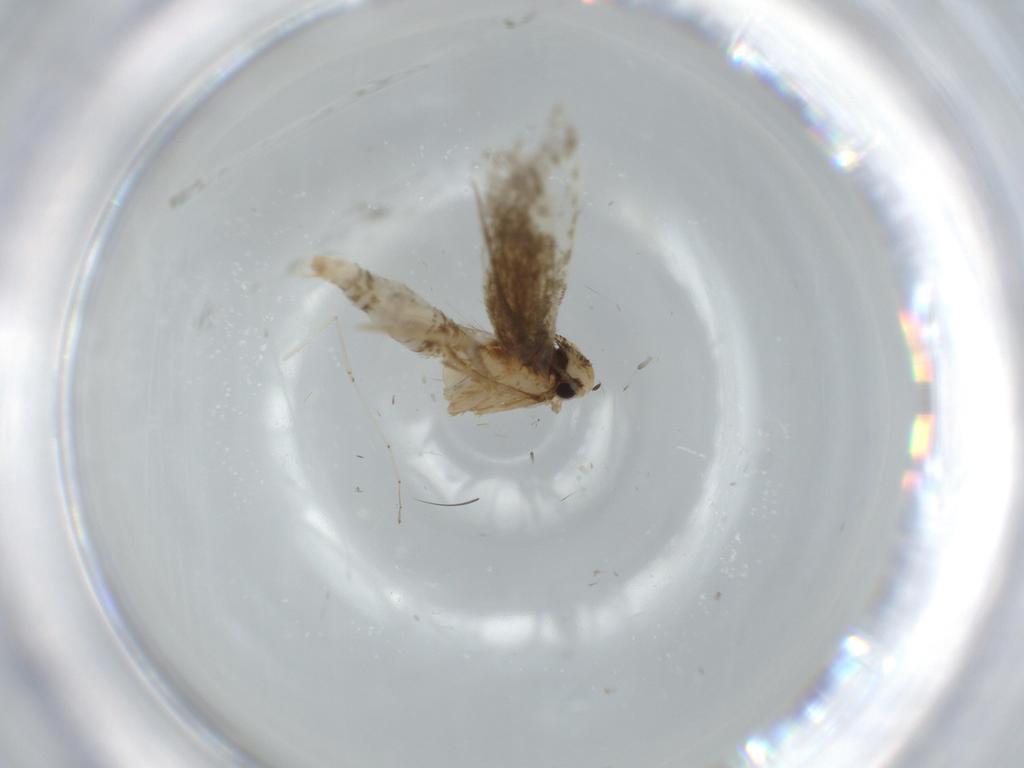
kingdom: Animalia
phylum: Arthropoda
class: Insecta
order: Lepidoptera
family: Tineidae
